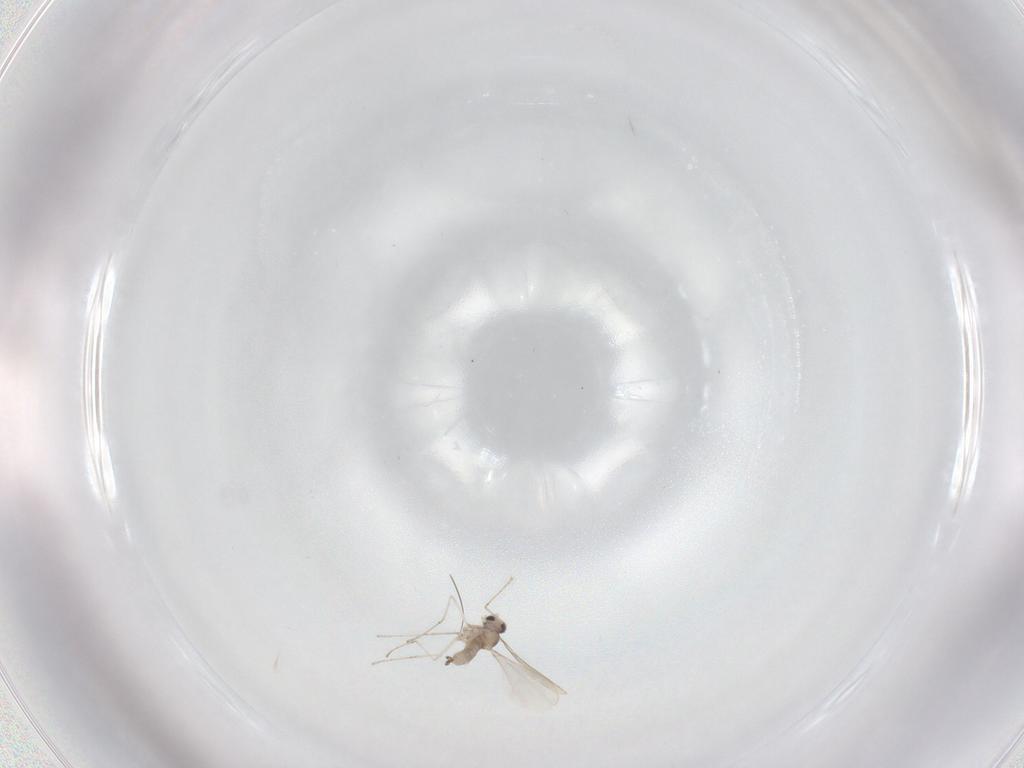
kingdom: Animalia
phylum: Arthropoda
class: Insecta
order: Diptera
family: Cecidomyiidae
